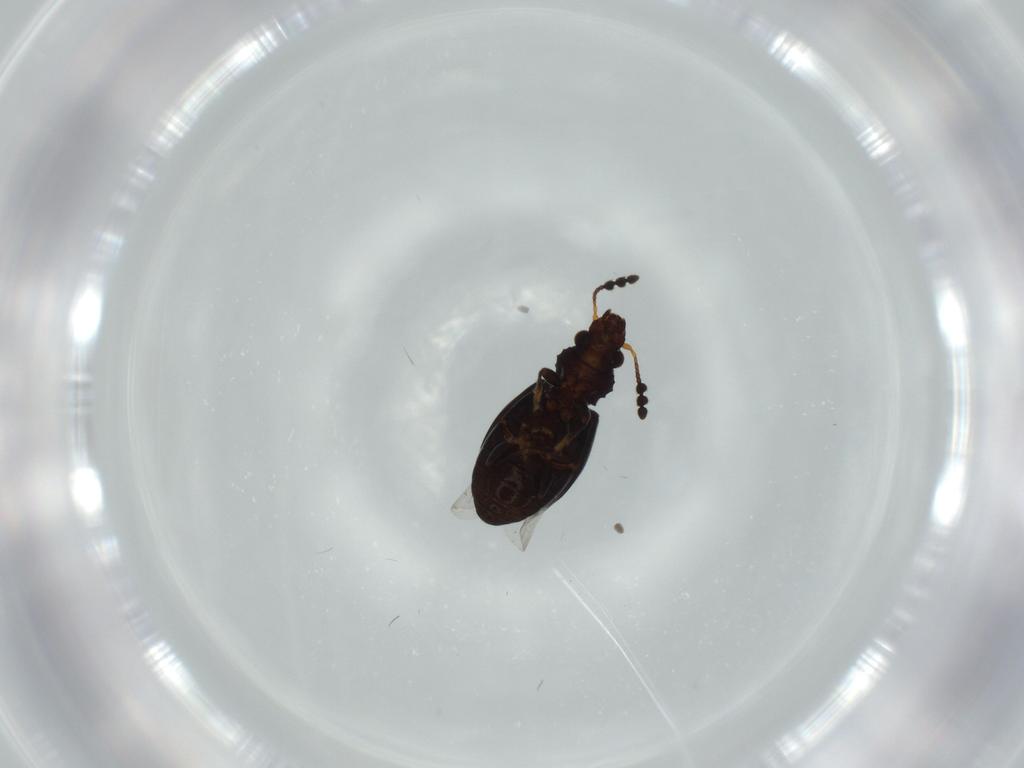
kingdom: Animalia
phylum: Arthropoda
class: Insecta
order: Coleoptera
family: Salpingidae
